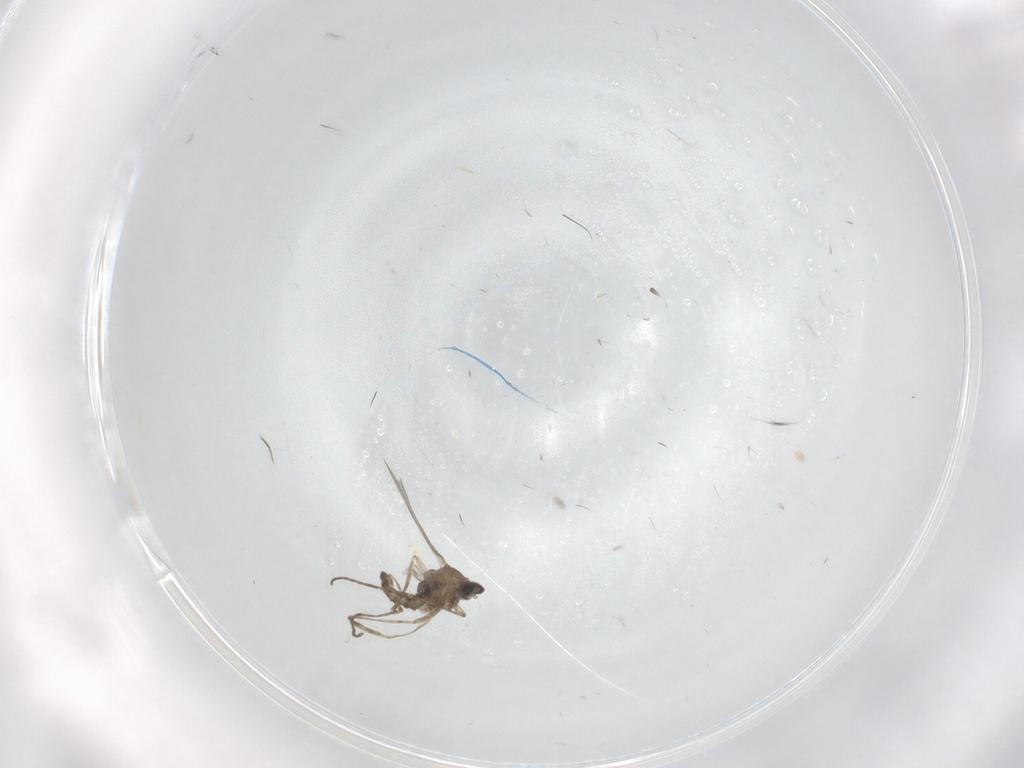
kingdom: Animalia
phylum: Arthropoda
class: Insecta
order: Diptera
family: Cecidomyiidae
